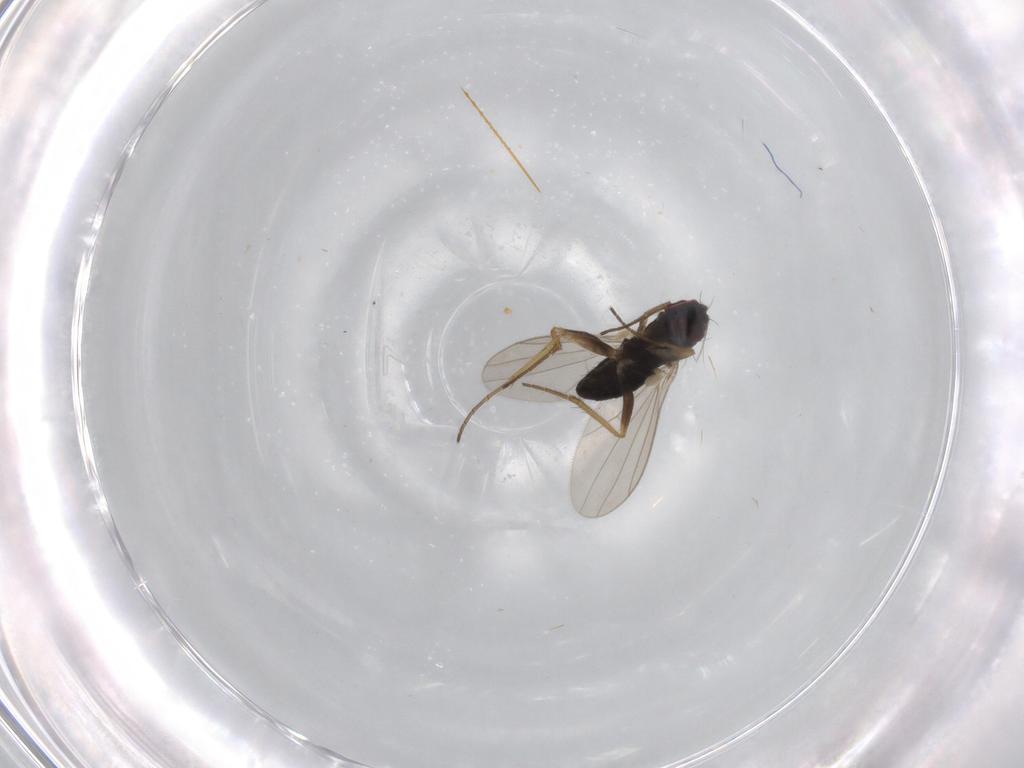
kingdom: Animalia
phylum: Arthropoda
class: Insecta
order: Diptera
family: Dolichopodidae
